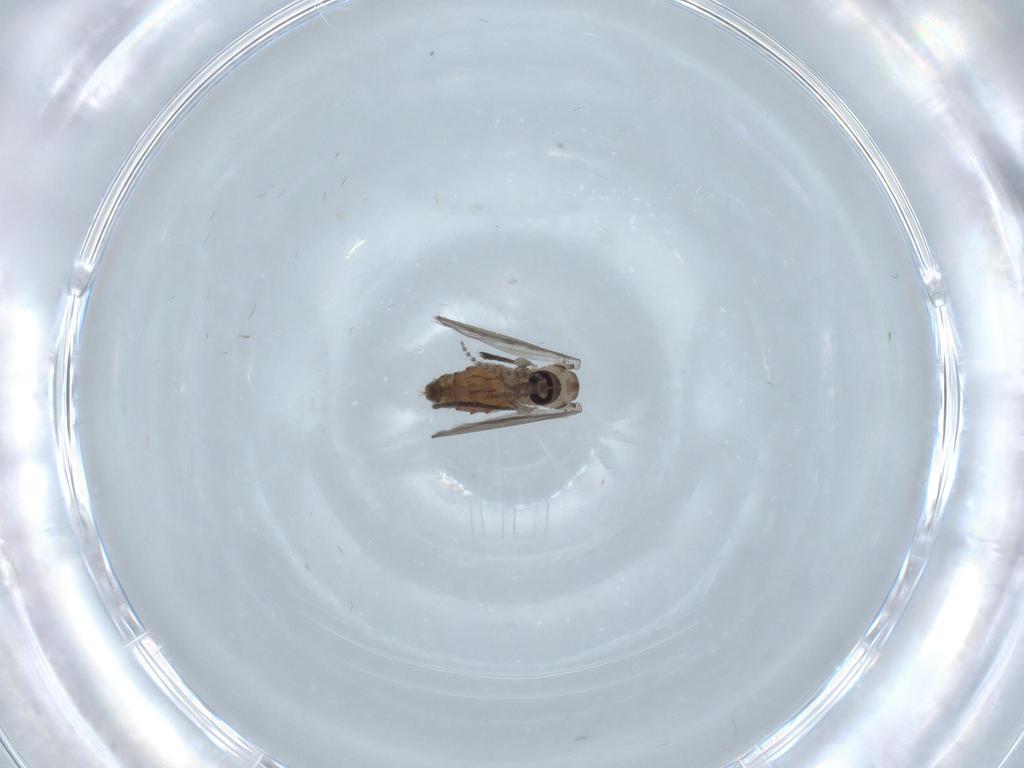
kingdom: Animalia
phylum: Arthropoda
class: Insecta
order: Diptera
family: Psychodidae
